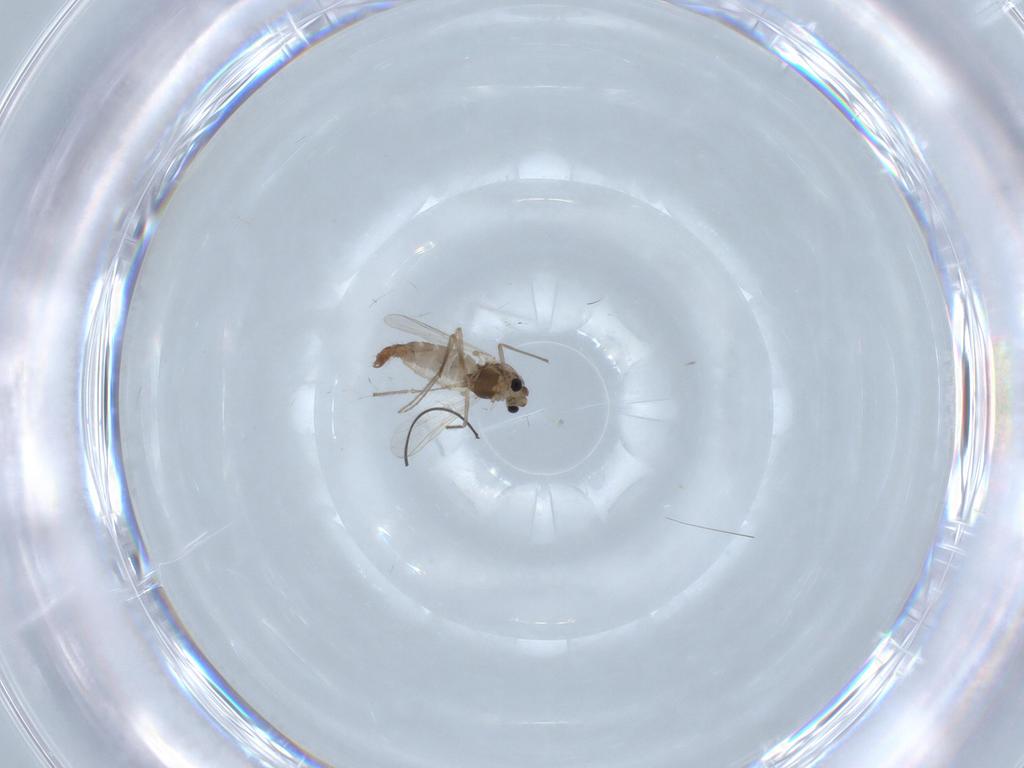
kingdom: Animalia
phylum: Arthropoda
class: Insecta
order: Diptera
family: Chironomidae
